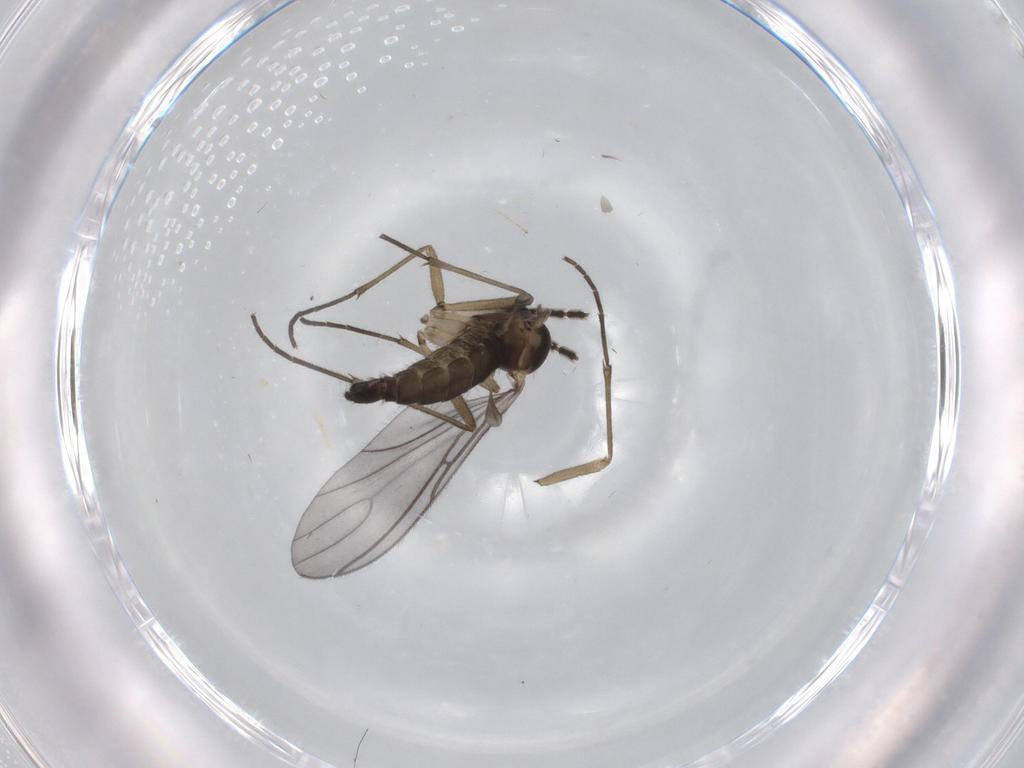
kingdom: Animalia
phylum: Arthropoda
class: Insecta
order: Diptera
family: Sciaridae
